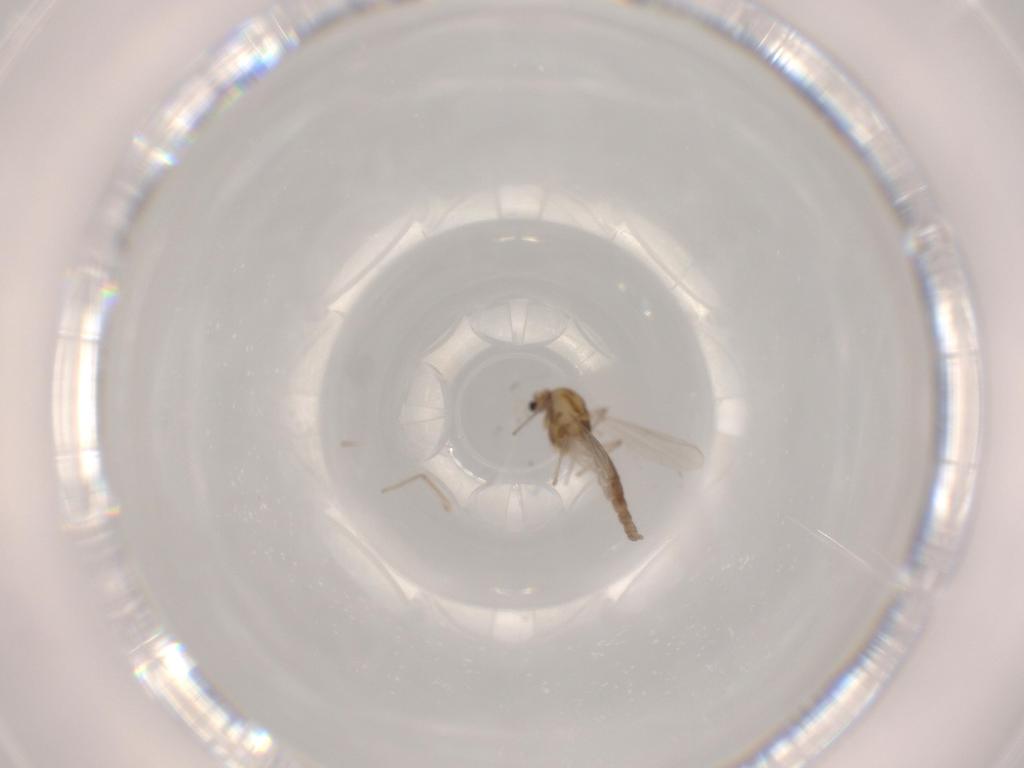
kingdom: Animalia
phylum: Arthropoda
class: Insecta
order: Diptera
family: Chironomidae
